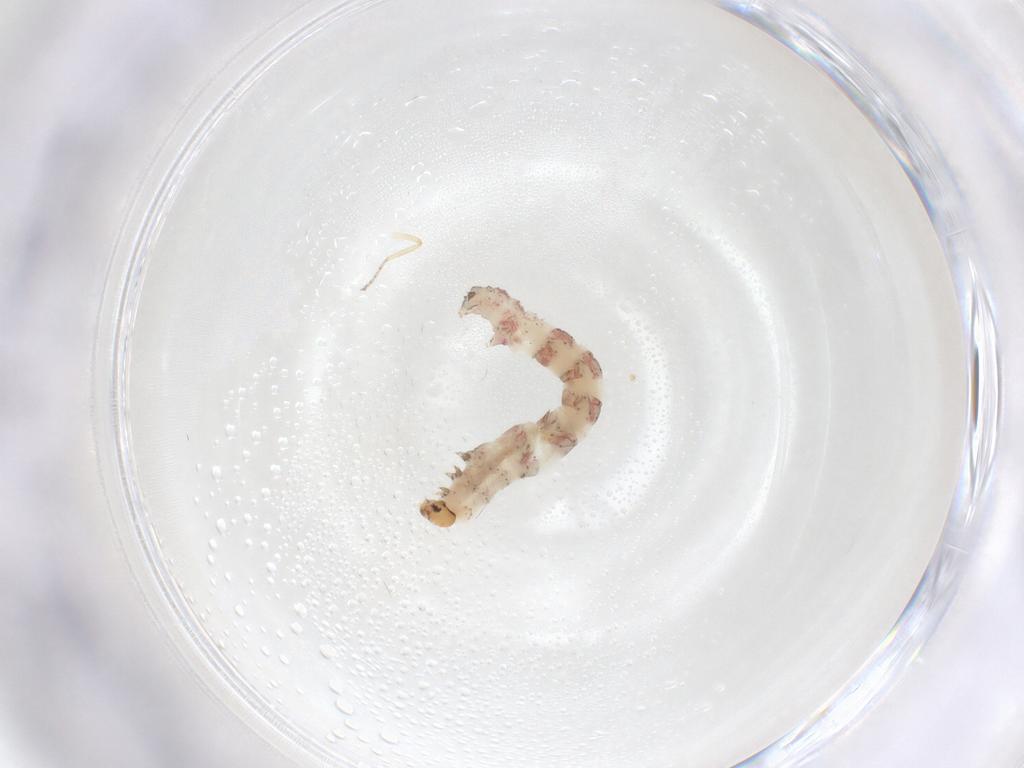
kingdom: Animalia
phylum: Arthropoda
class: Insecta
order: Lepidoptera
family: Geometridae
